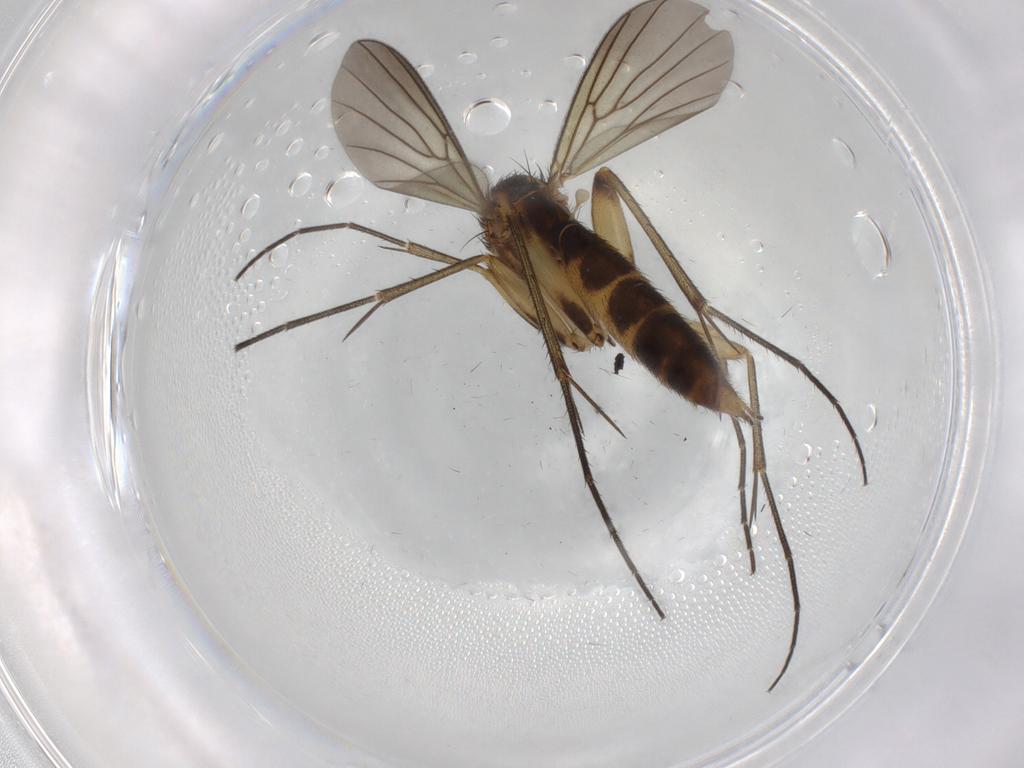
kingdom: Animalia
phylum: Arthropoda
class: Insecta
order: Diptera
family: Mycetophilidae
